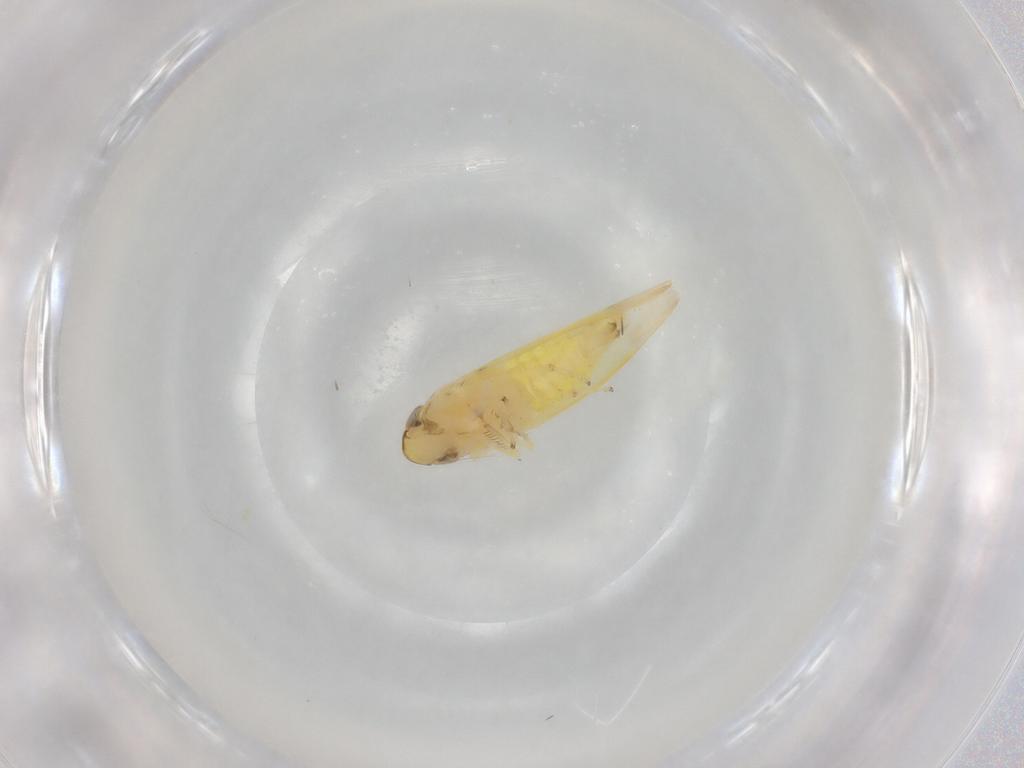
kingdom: Animalia
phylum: Arthropoda
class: Insecta
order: Hemiptera
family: Cicadellidae
